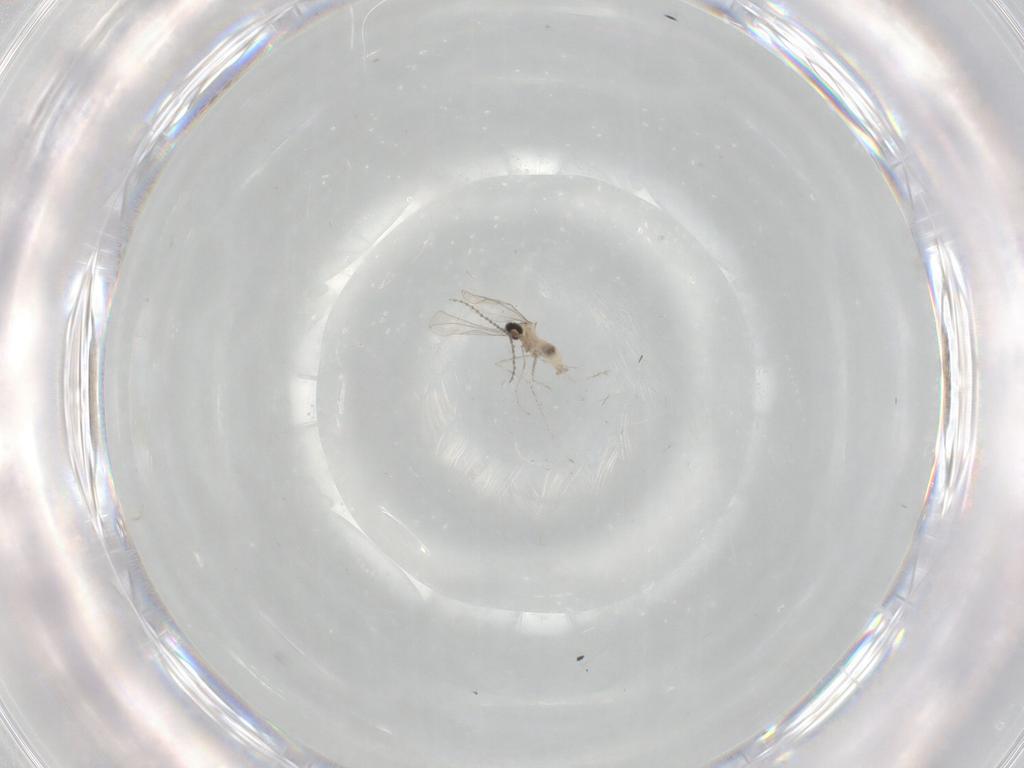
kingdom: Animalia
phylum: Arthropoda
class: Insecta
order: Diptera
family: Cecidomyiidae
